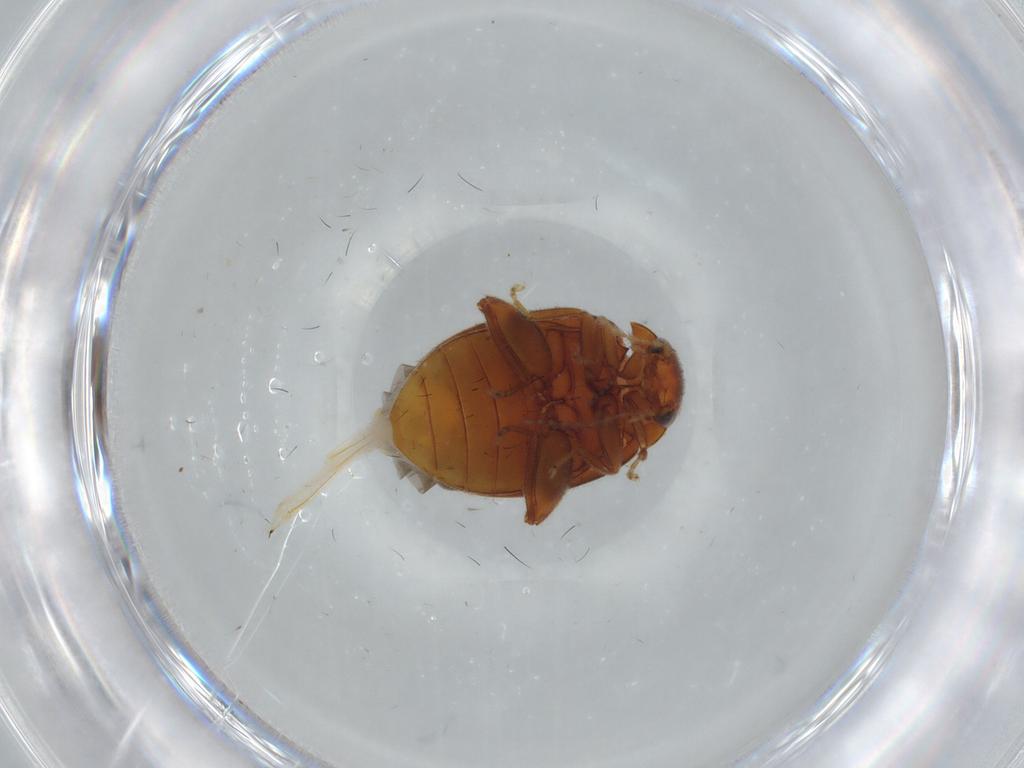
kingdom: Animalia
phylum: Arthropoda
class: Insecta
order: Coleoptera
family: Scirtidae
